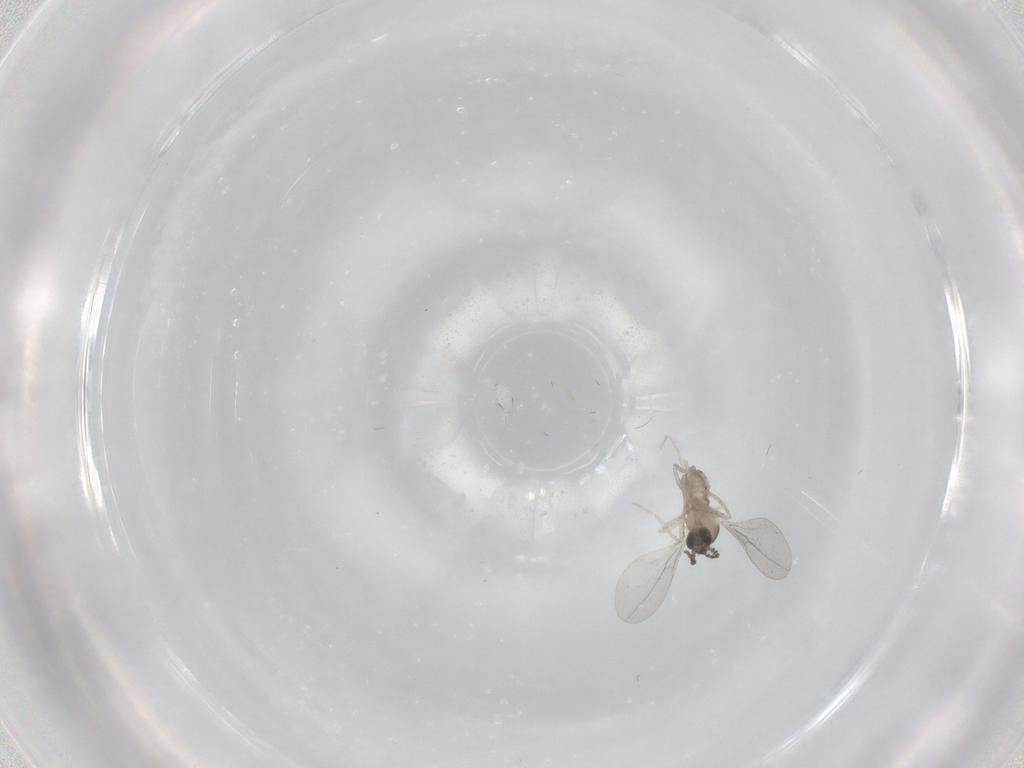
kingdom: Animalia
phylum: Arthropoda
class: Insecta
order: Diptera
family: Cecidomyiidae
